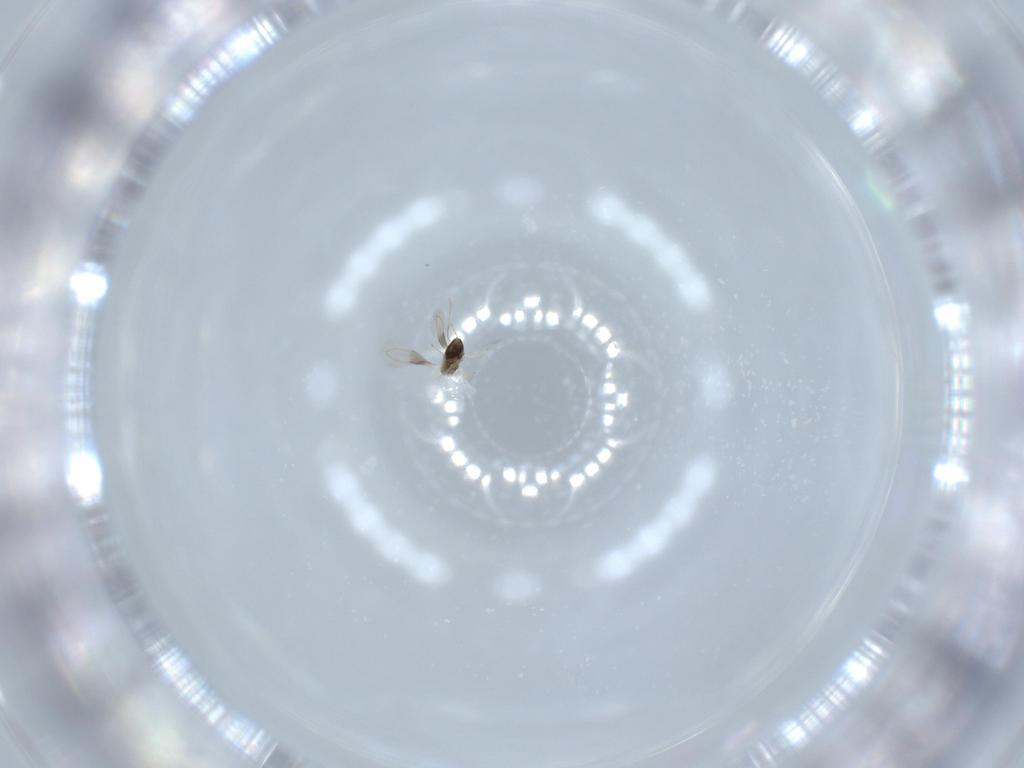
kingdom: Animalia
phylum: Arthropoda
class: Insecta
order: Hymenoptera
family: Aphelinidae
